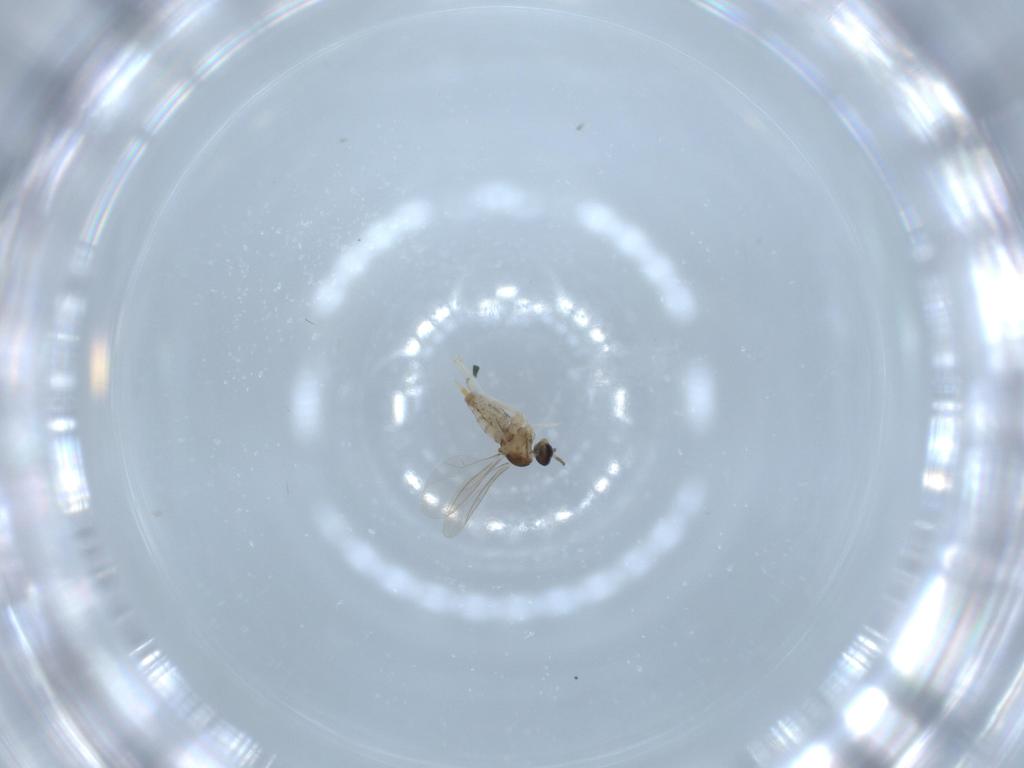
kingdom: Animalia
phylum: Arthropoda
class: Insecta
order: Diptera
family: Cecidomyiidae
